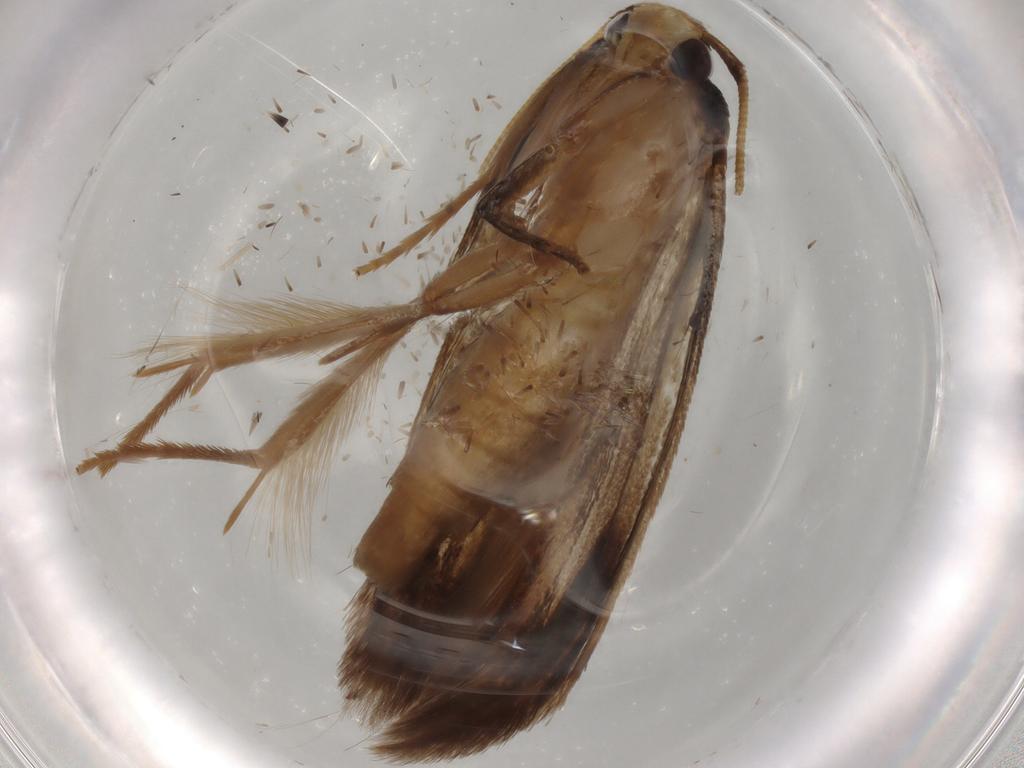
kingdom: Animalia
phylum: Arthropoda
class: Insecta
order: Lepidoptera
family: Tineidae
